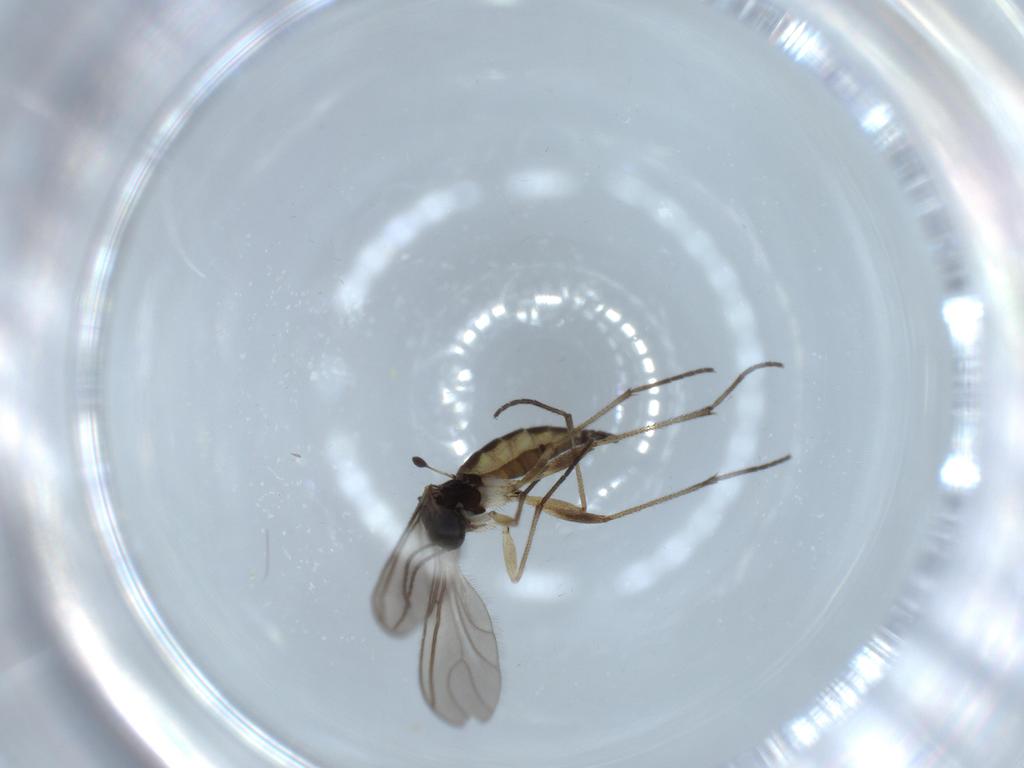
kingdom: Animalia
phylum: Arthropoda
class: Insecta
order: Diptera
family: Sciaridae
